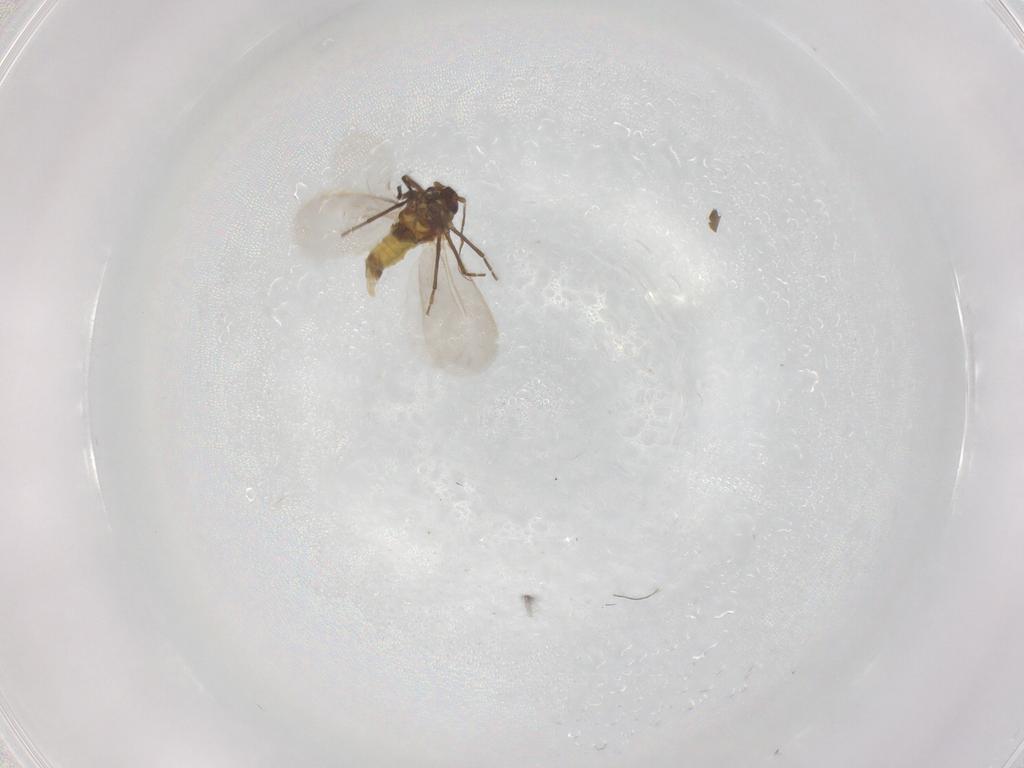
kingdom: Animalia
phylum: Arthropoda
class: Insecta
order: Hemiptera
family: Aleyrodidae
